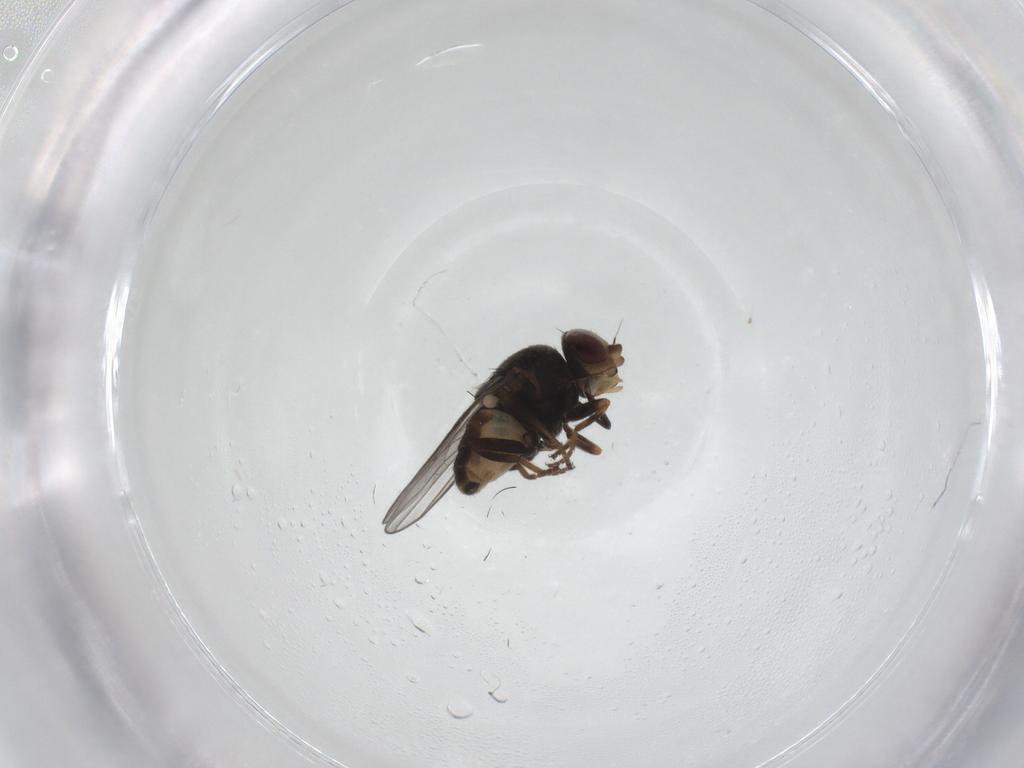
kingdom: Animalia
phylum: Arthropoda
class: Insecta
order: Diptera
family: Chloropidae
